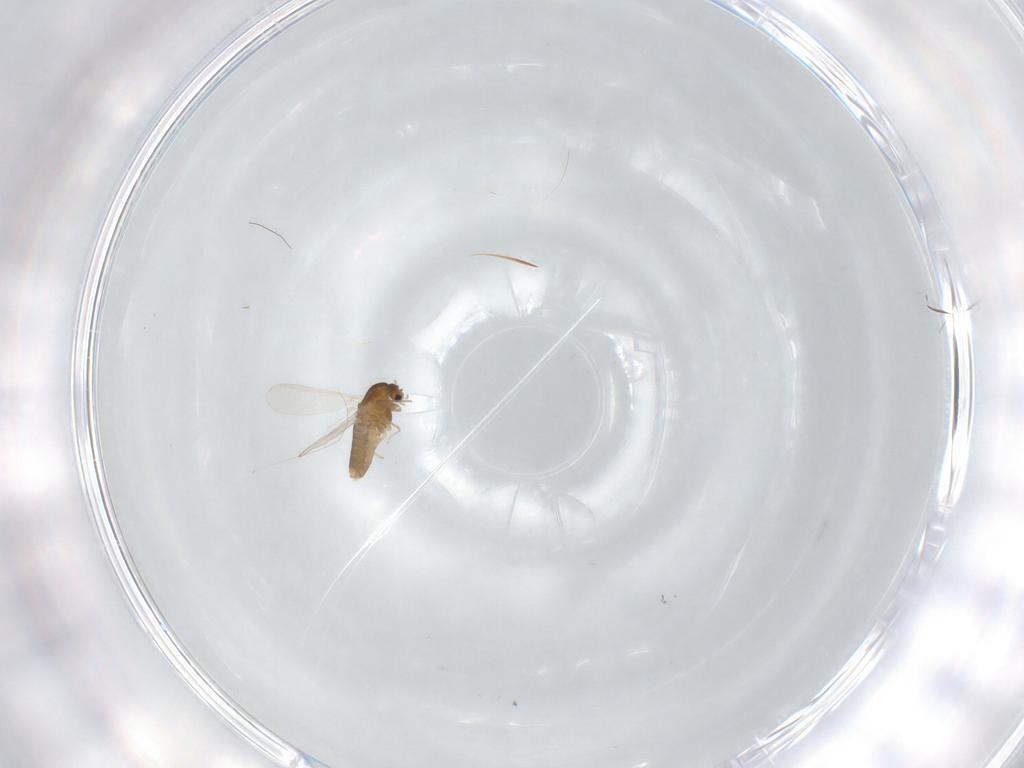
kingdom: Animalia
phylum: Arthropoda
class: Insecta
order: Diptera
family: Chironomidae
